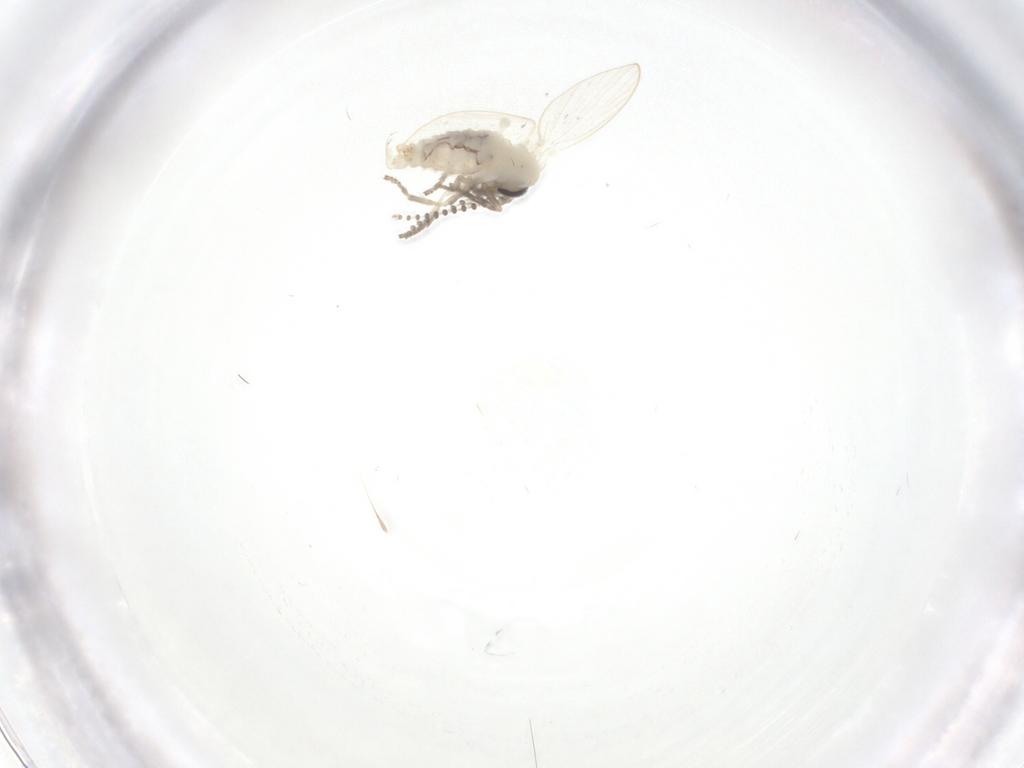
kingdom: Animalia
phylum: Arthropoda
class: Insecta
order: Diptera
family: Psychodidae
